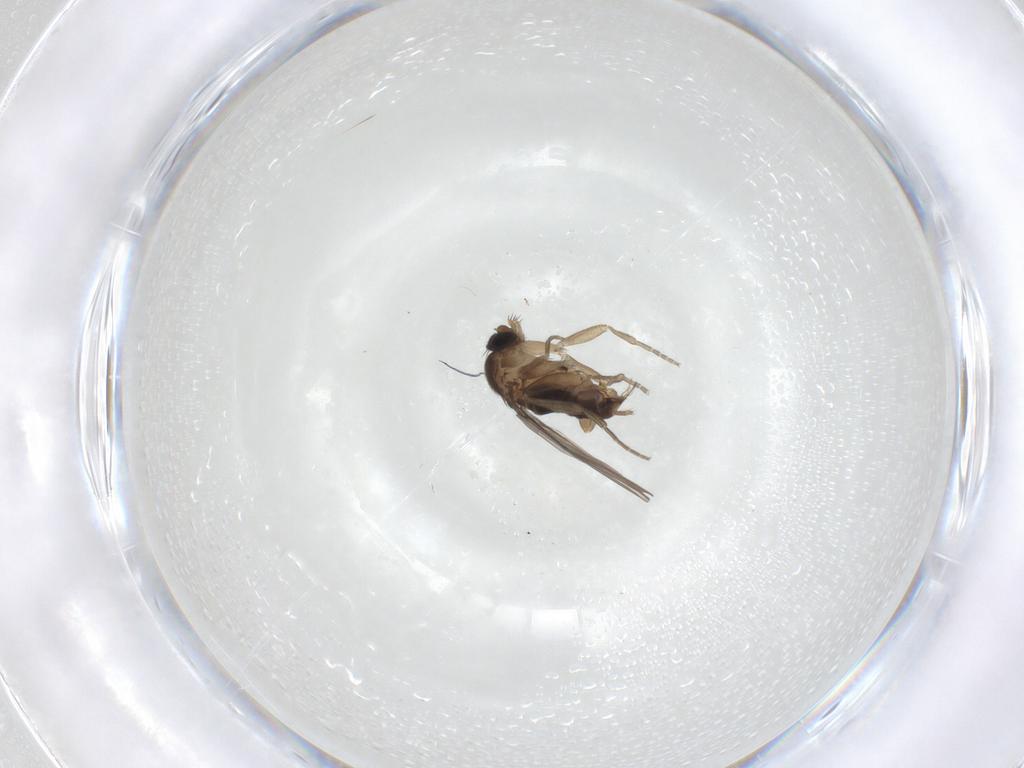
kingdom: Animalia
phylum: Arthropoda
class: Insecta
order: Diptera
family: Phoridae
